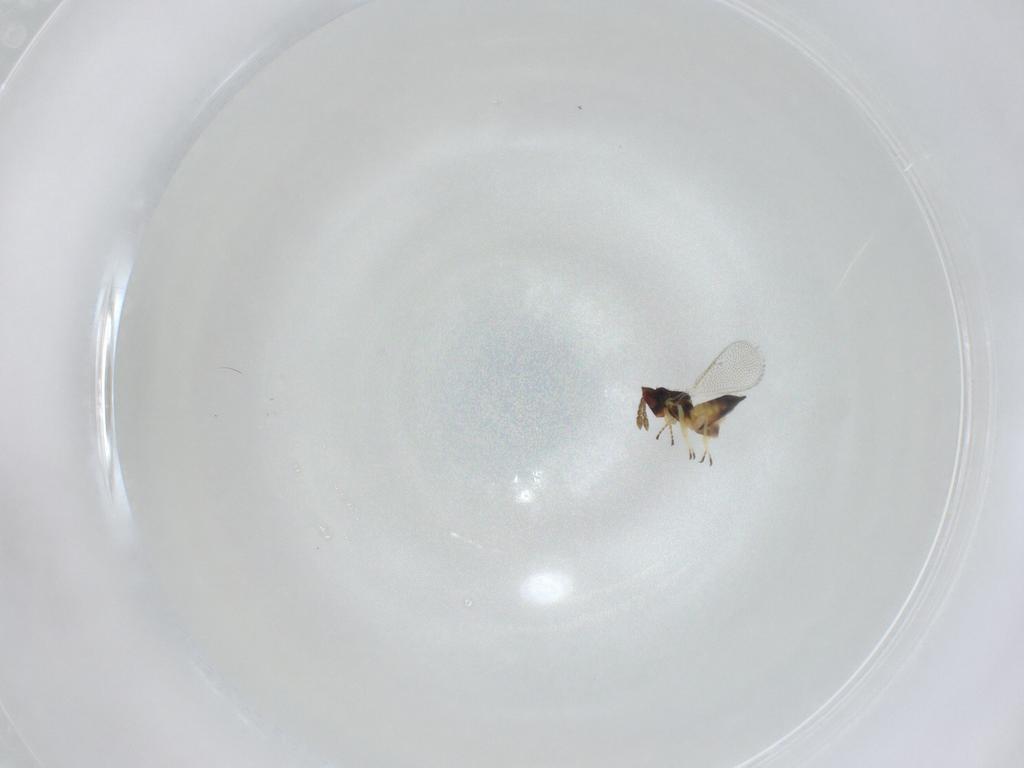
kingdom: Animalia
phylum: Arthropoda
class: Insecta
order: Hymenoptera
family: Eulophidae
